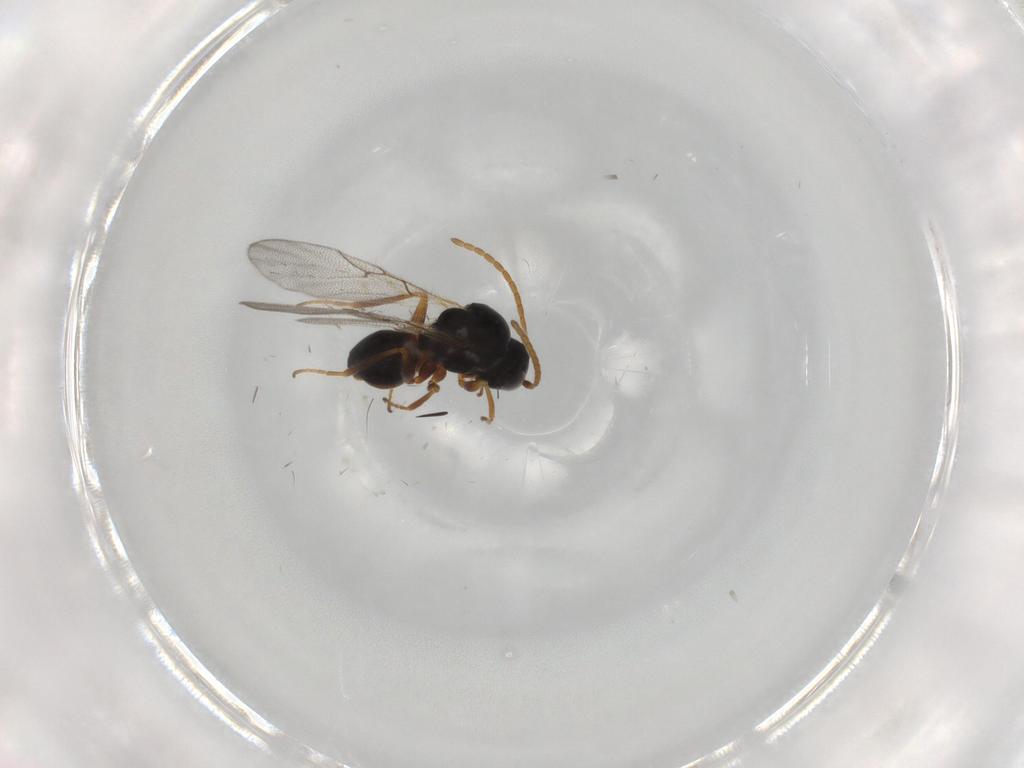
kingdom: Animalia
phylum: Arthropoda
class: Insecta
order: Hymenoptera
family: Figitidae
